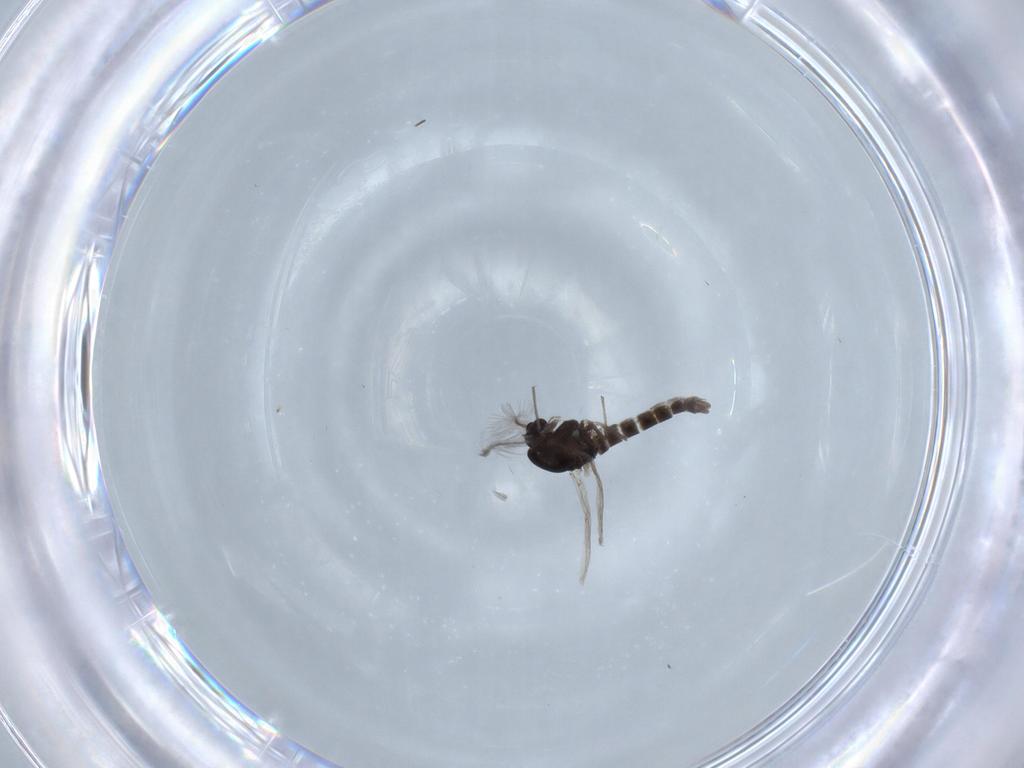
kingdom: Animalia
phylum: Arthropoda
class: Insecta
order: Diptera
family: Chironomidae
